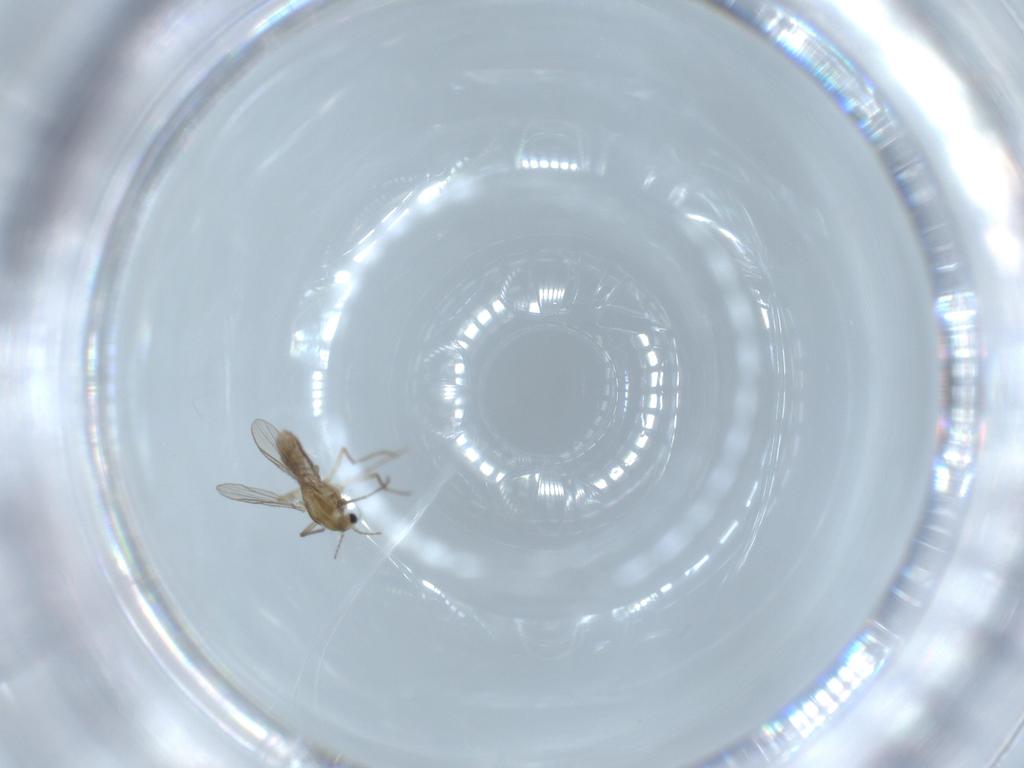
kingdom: Animalia
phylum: Arthropoda
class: Insecta
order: Diptera
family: Chironomidae
